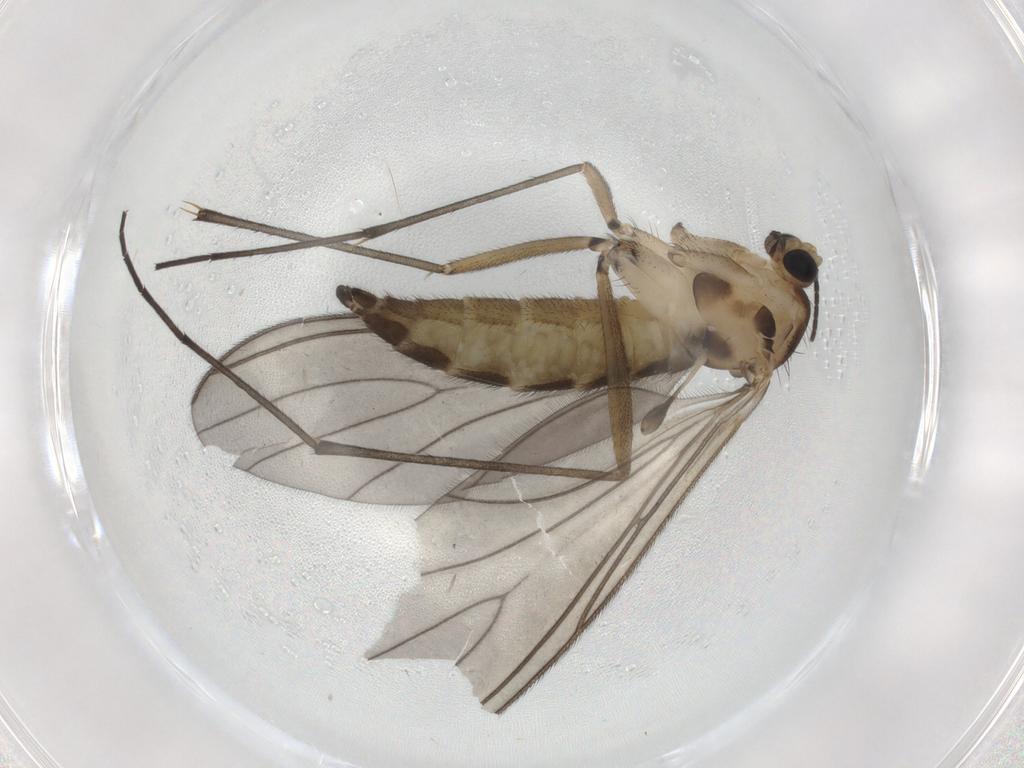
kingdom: Animalia
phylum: Arthropoda
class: Insecta
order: Diptera
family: Sciaridae
